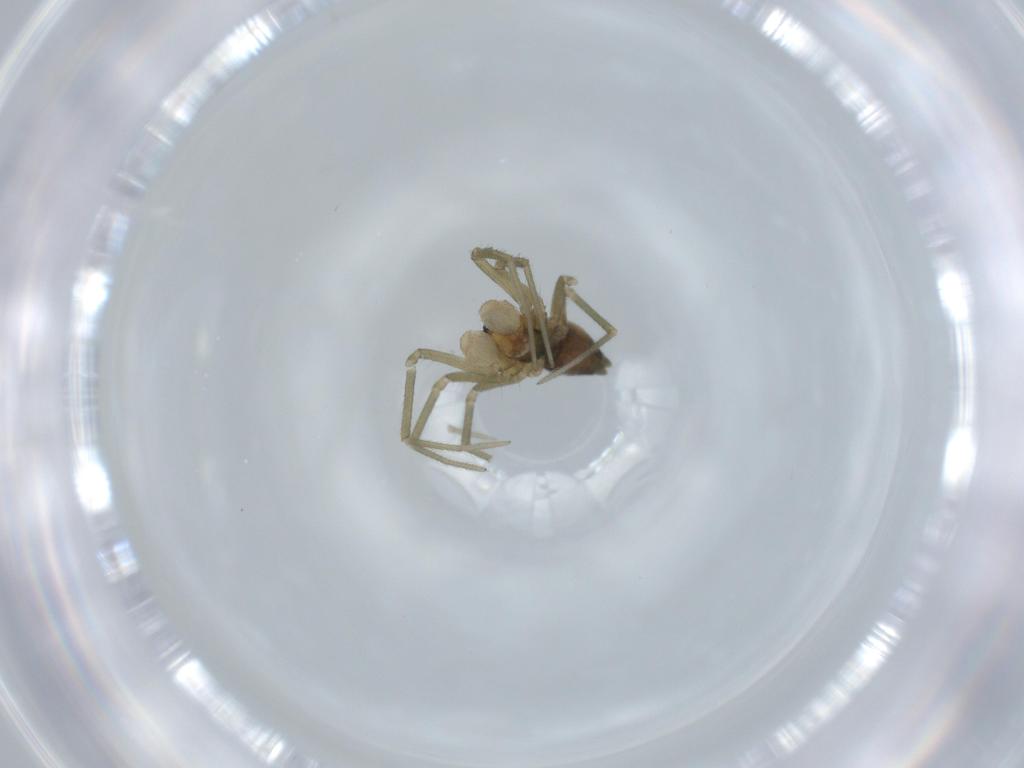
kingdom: Animalia
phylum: Arthropoda
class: Arachnida
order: Araneae
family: Linyphiidae
